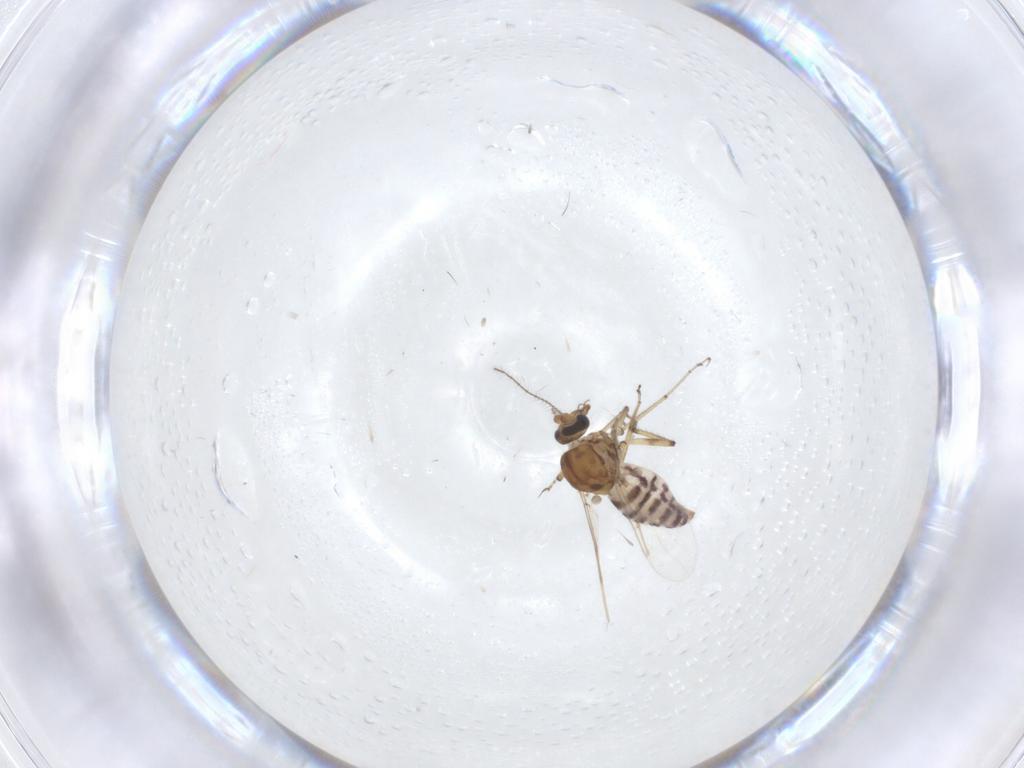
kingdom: Animalia
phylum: Arthropoda
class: Insecta
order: Diptera
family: Ceratopogonidae
